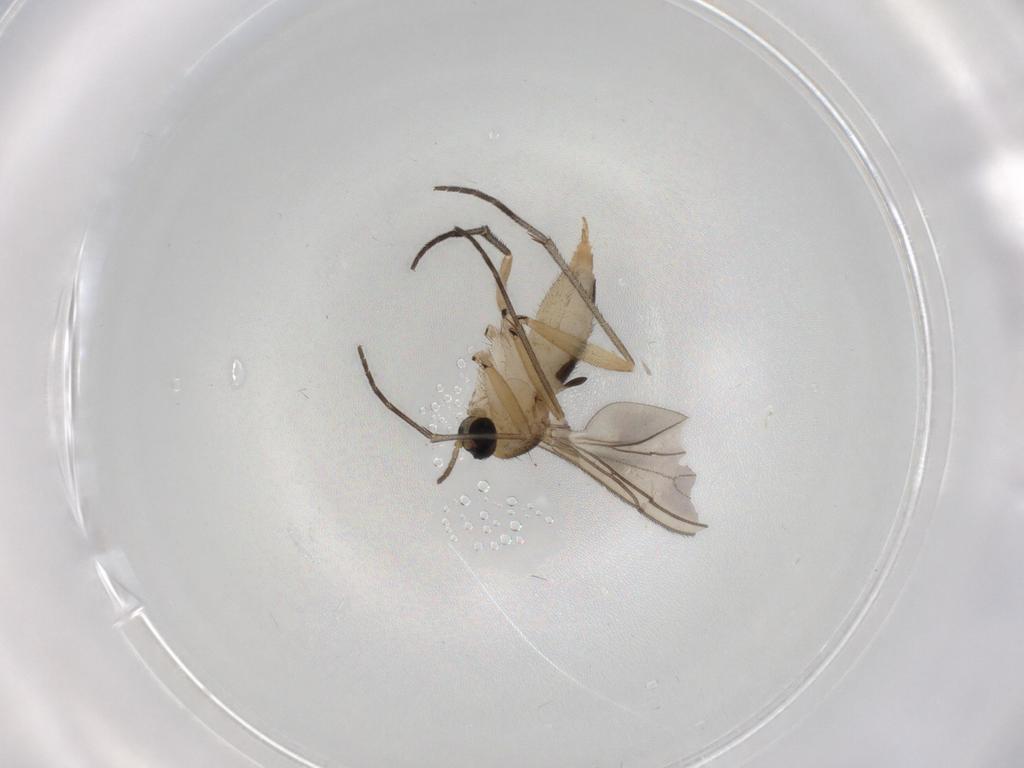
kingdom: Animalia
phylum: Arthropoda
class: Insecta
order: Diptera
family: Sciaridae
